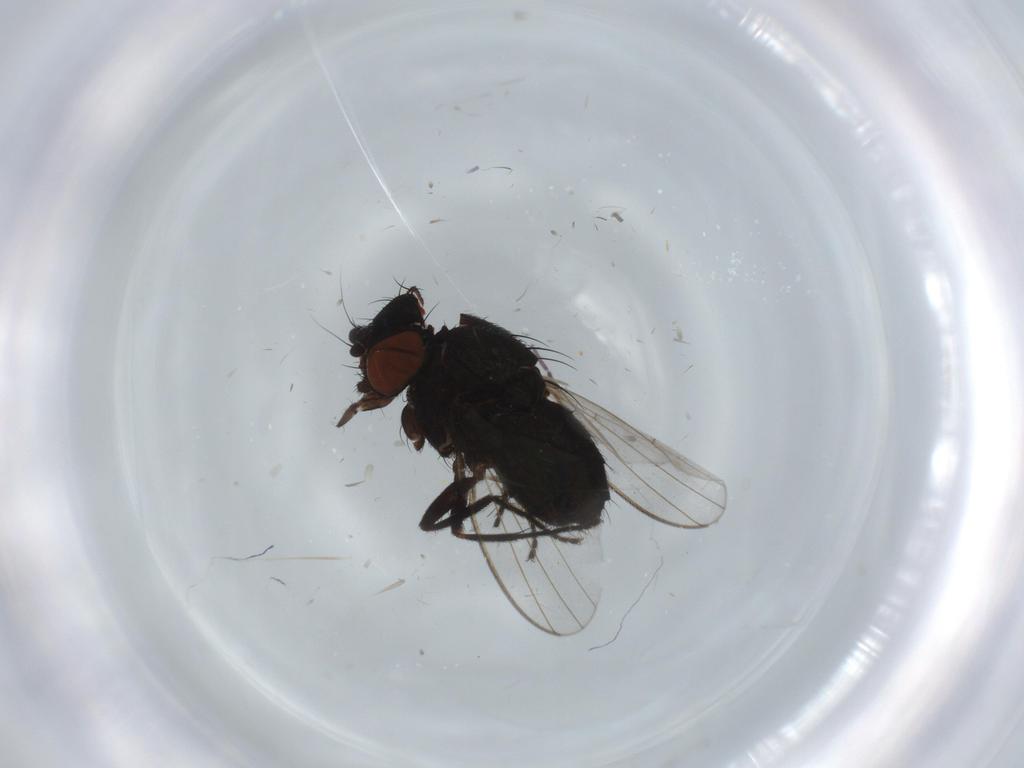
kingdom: Animalia
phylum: Arthropoda
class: Insecta
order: Diptera
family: Milichiidae
